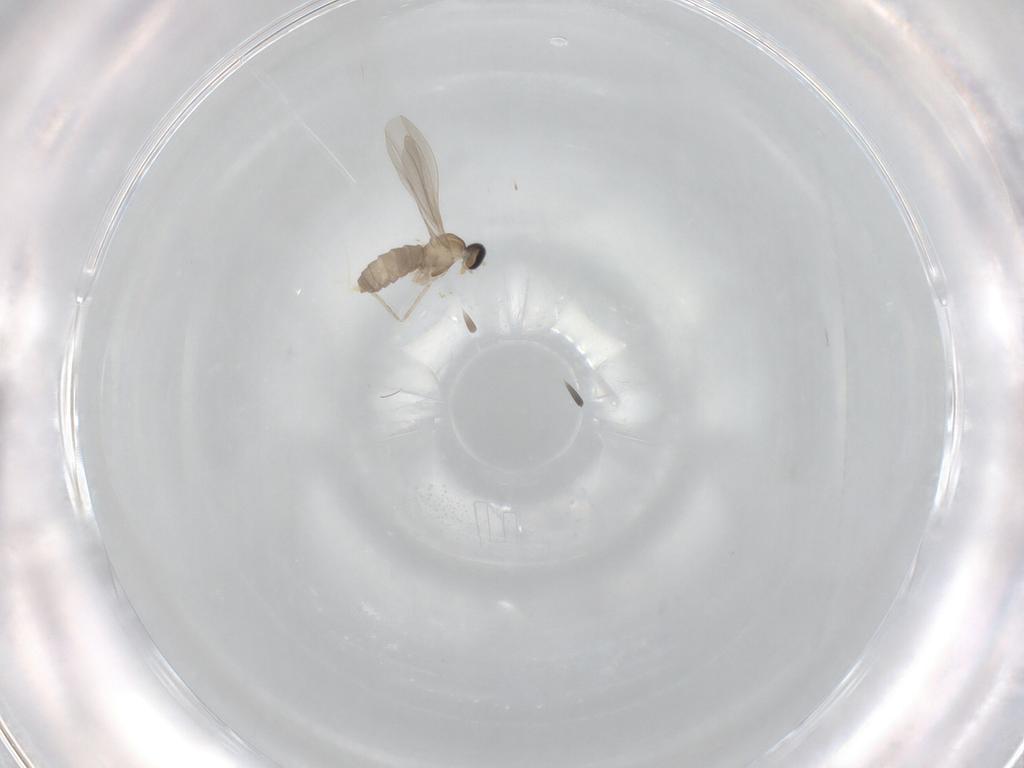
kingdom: Animalia
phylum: Arthropoda
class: Insecta
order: Diptera
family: Cecidomyiidae
